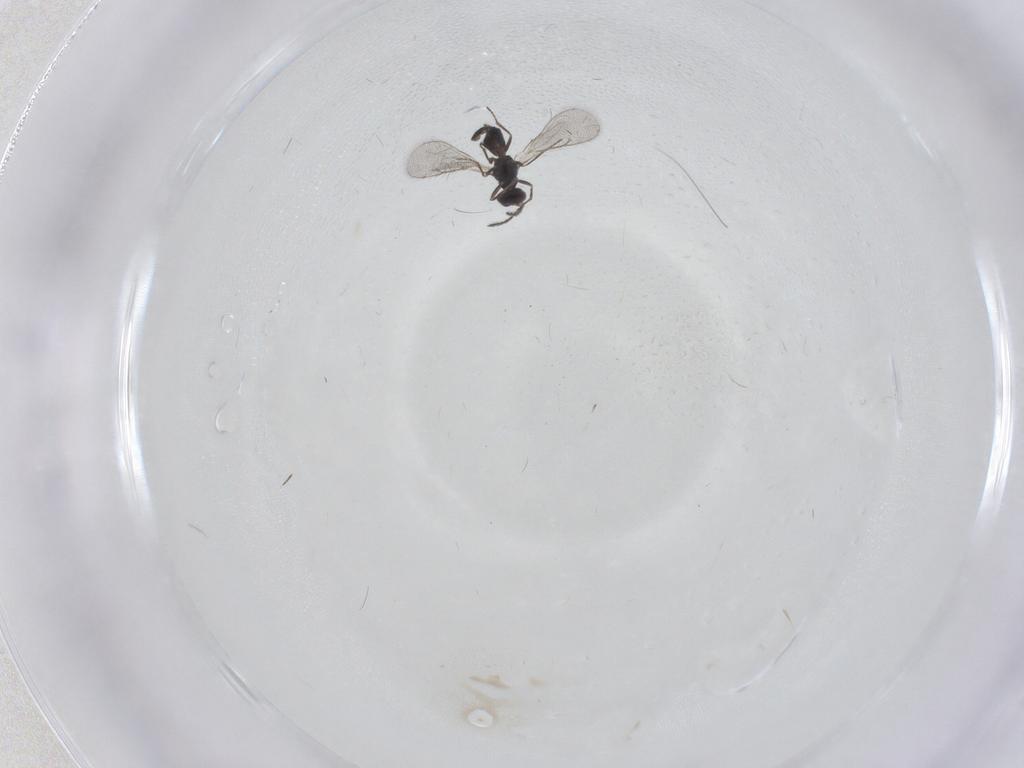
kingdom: Animalia
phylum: Arthropoda
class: Insecta
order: Hymenoptera
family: Eulophidae
